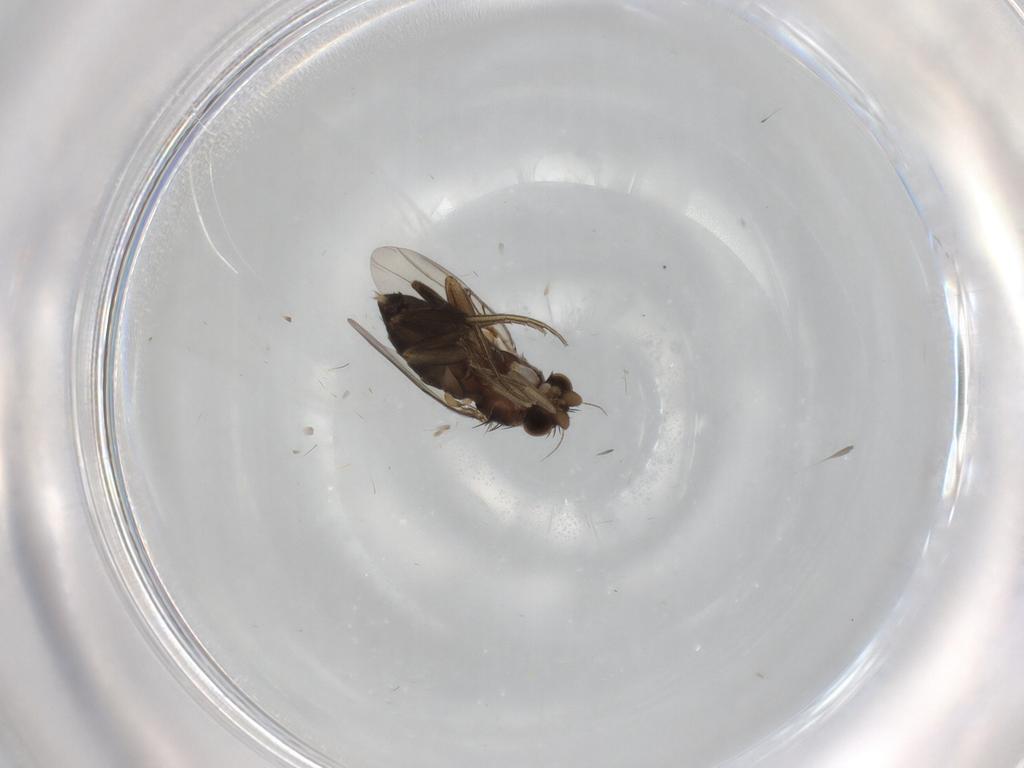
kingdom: Animalia
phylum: Arthropoda
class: Insecta
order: Diptera
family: Phoridae
